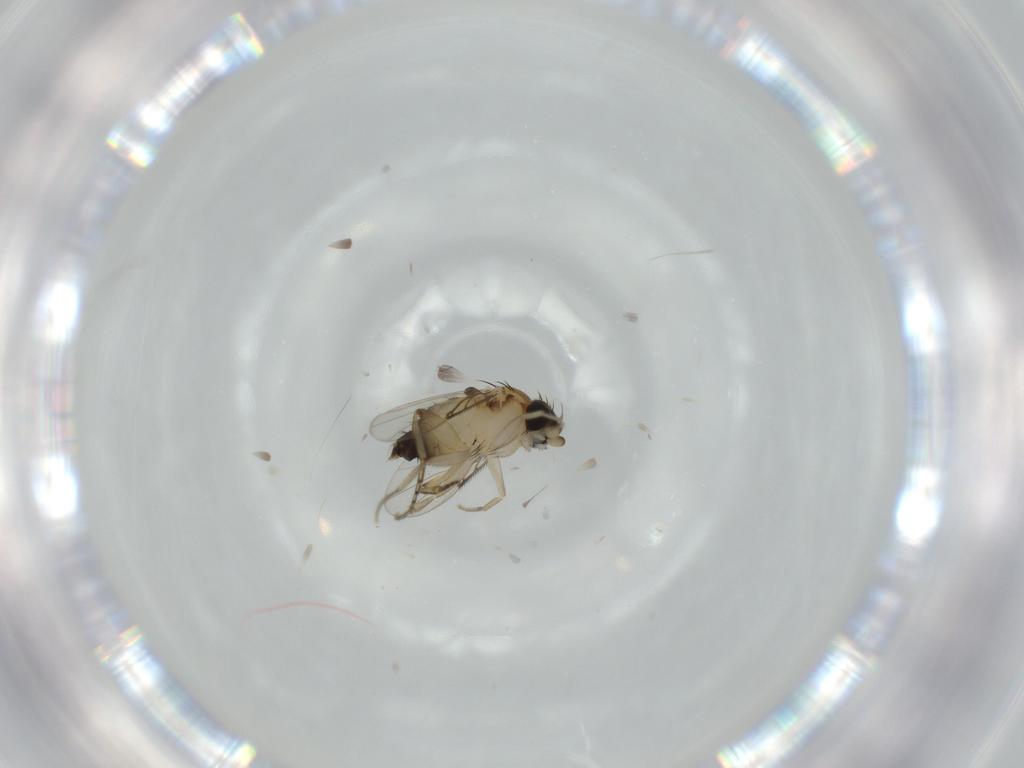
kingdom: Animalia
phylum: Arthropoda
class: Insecta
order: Diptera
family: Phoridae
